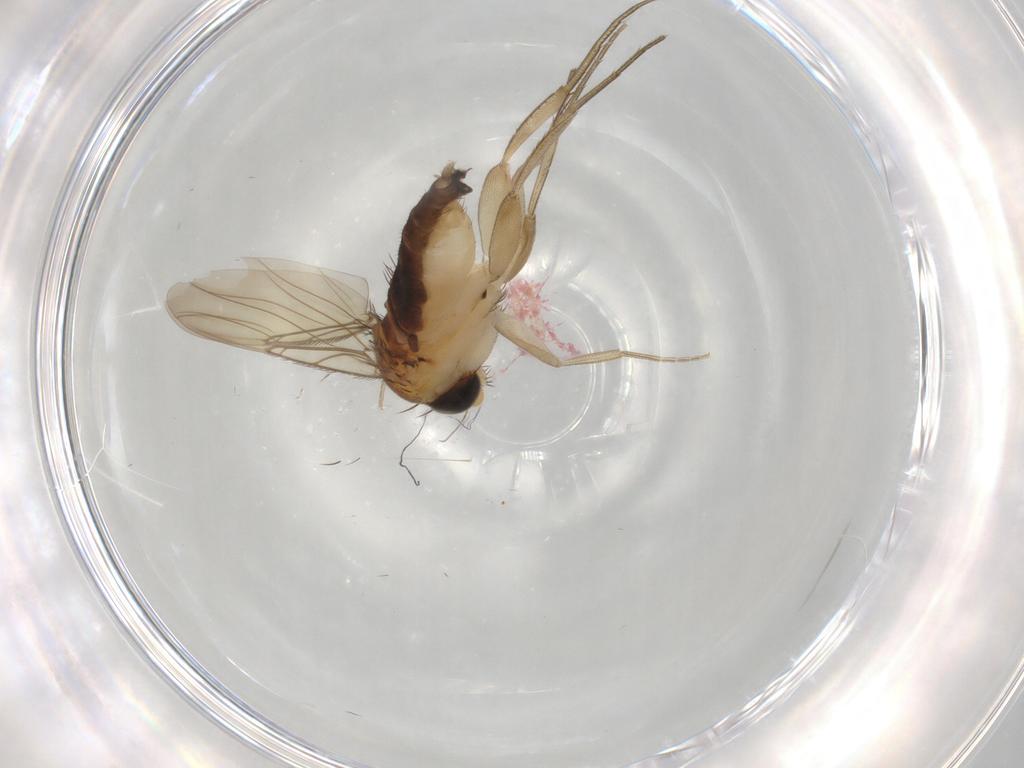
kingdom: Animalia
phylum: Arthropoda
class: Insecta
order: Diptera
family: Phoridae
